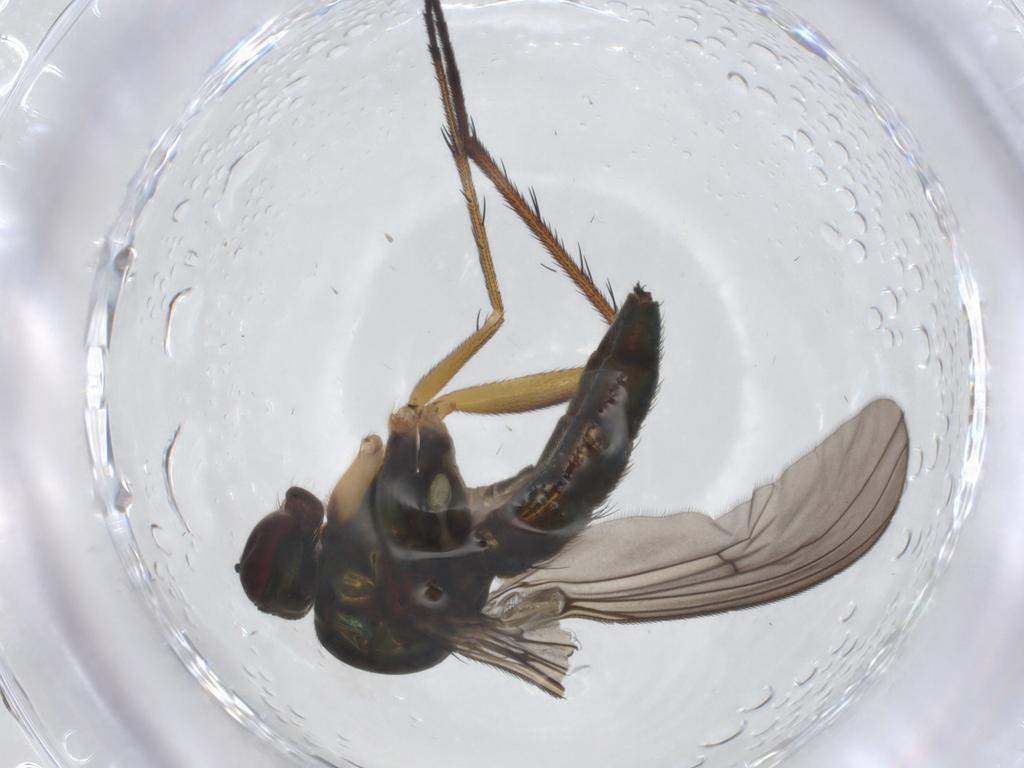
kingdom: Animalia
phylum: Arthropoda
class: Insecta
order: Diptera
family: Dolichopodidae
